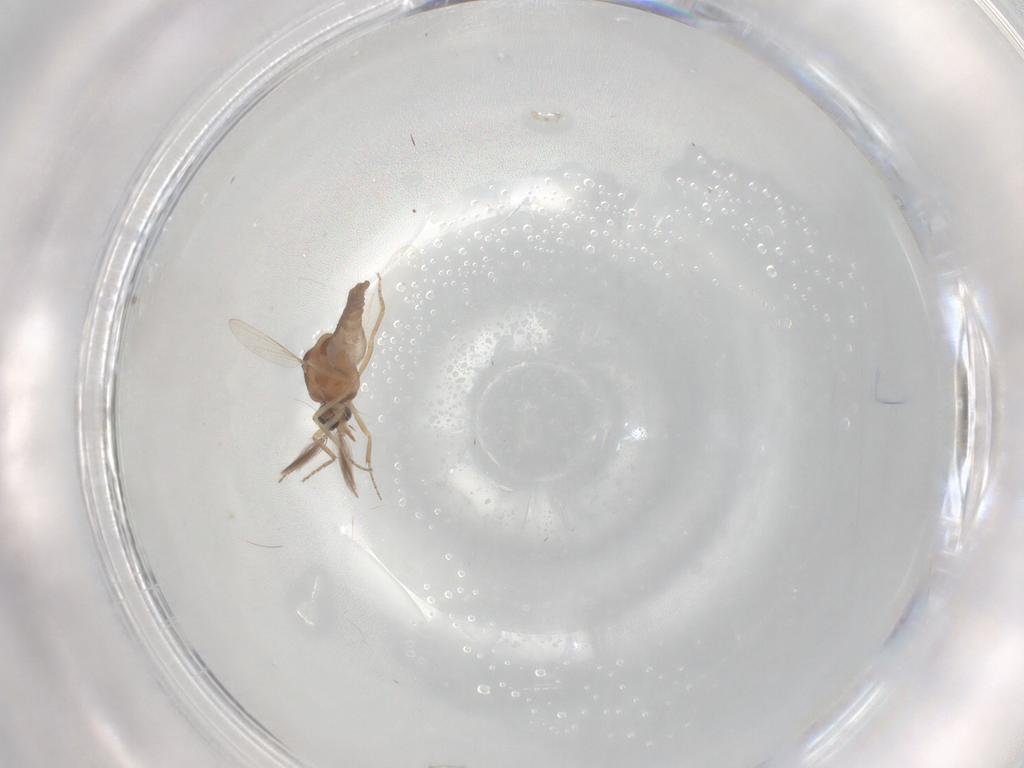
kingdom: Animalia
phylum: Arthropoda
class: Insecta
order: Diptera
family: Ceratopogonidae
